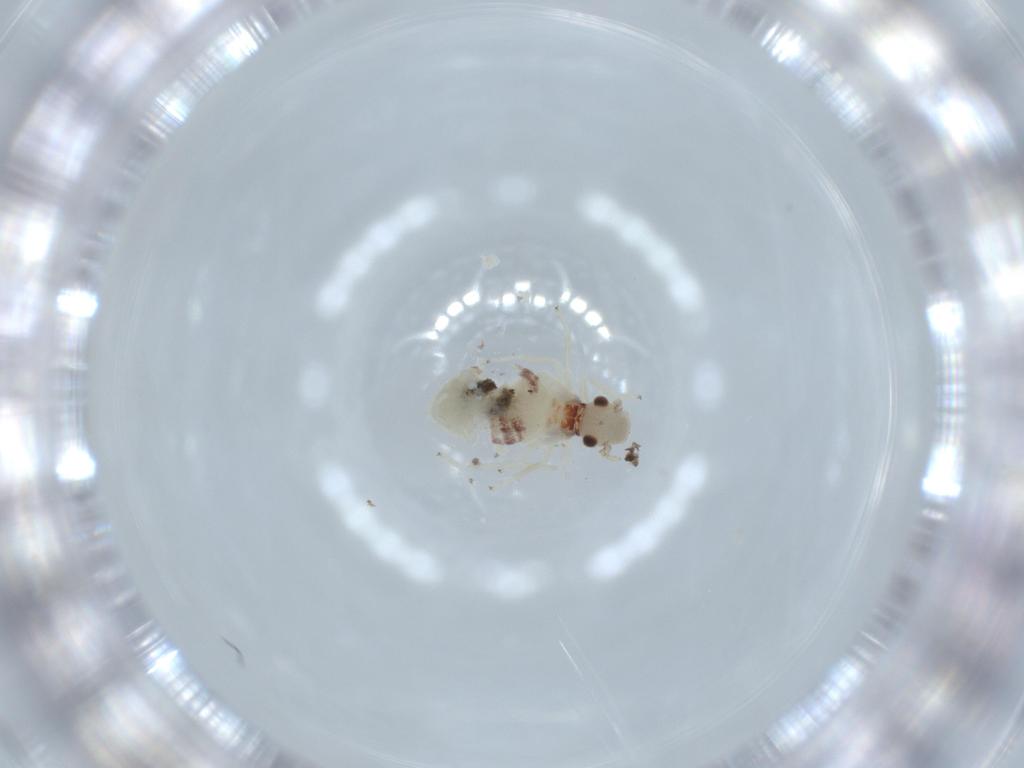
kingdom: Animalia
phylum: Arthropoda
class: Insecta
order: Psocodea
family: Caeciliusidae
